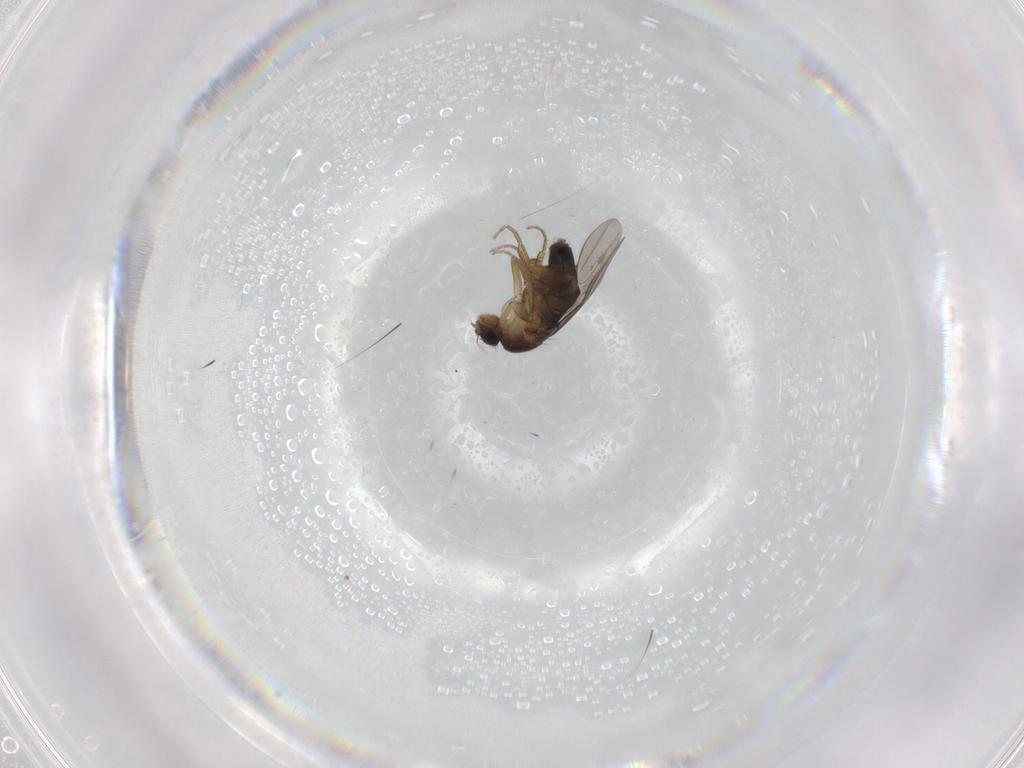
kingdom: Animalia
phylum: Arthropoda
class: Insecta
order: Diptera
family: Phoridae
